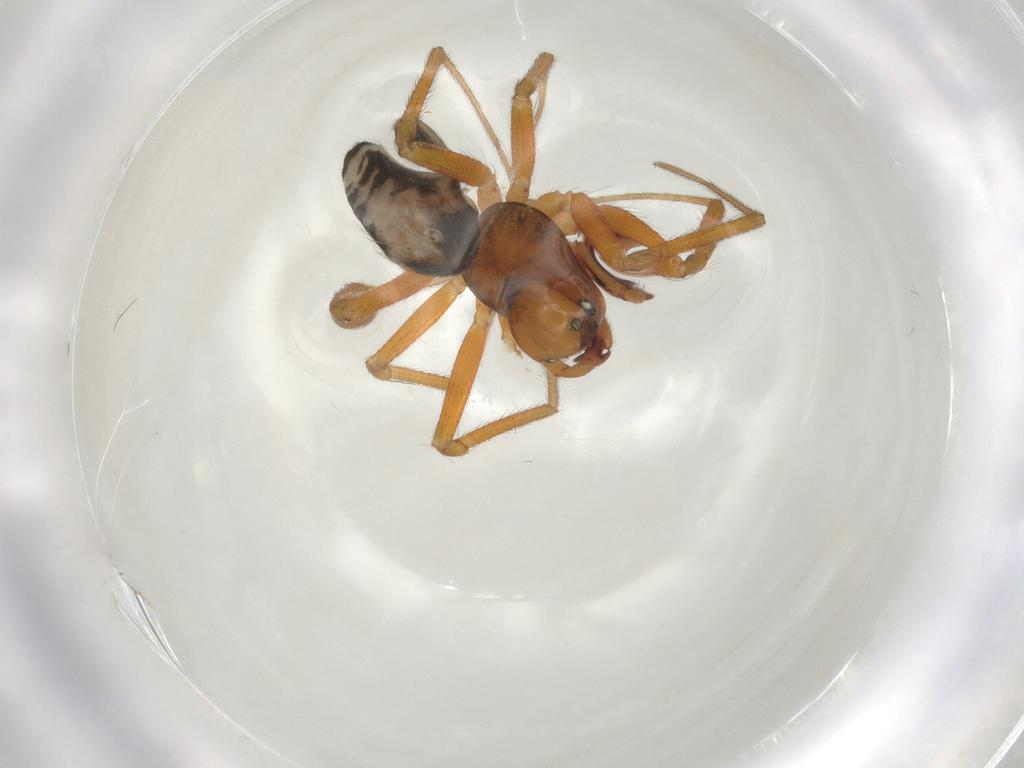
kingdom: Animalia
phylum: Arthropoda
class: Arachnida
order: Araneae
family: Linyphiidae
